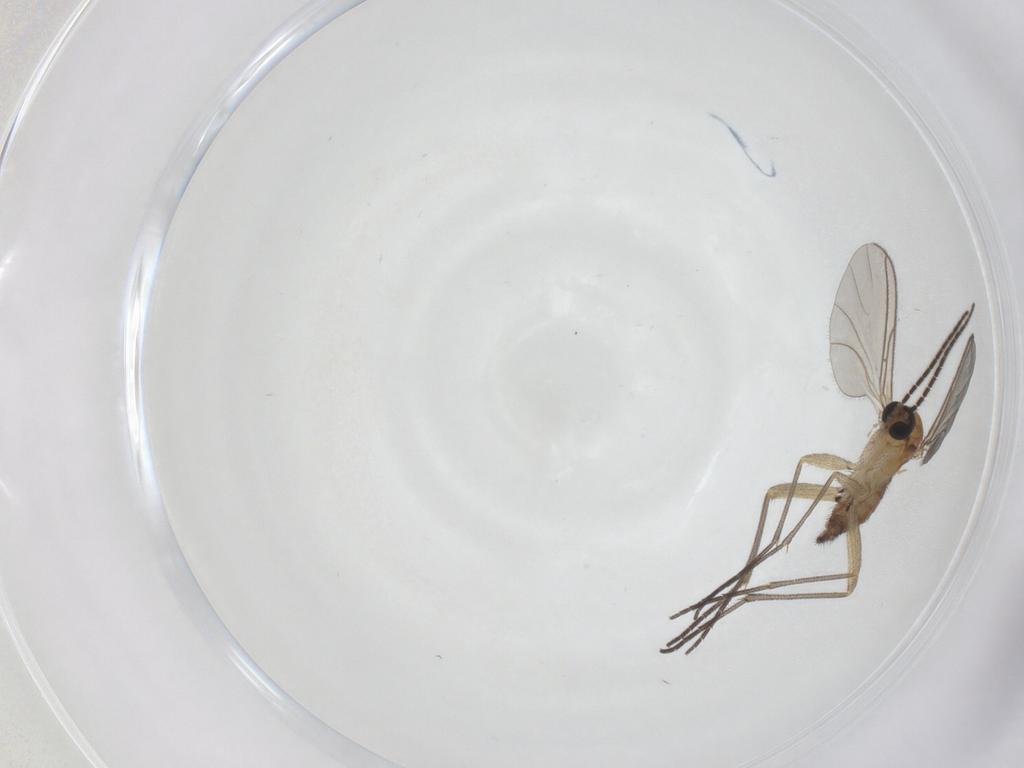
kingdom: Animalia
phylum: Arthropoda
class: Insecta
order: Diptera
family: Sciaridae
